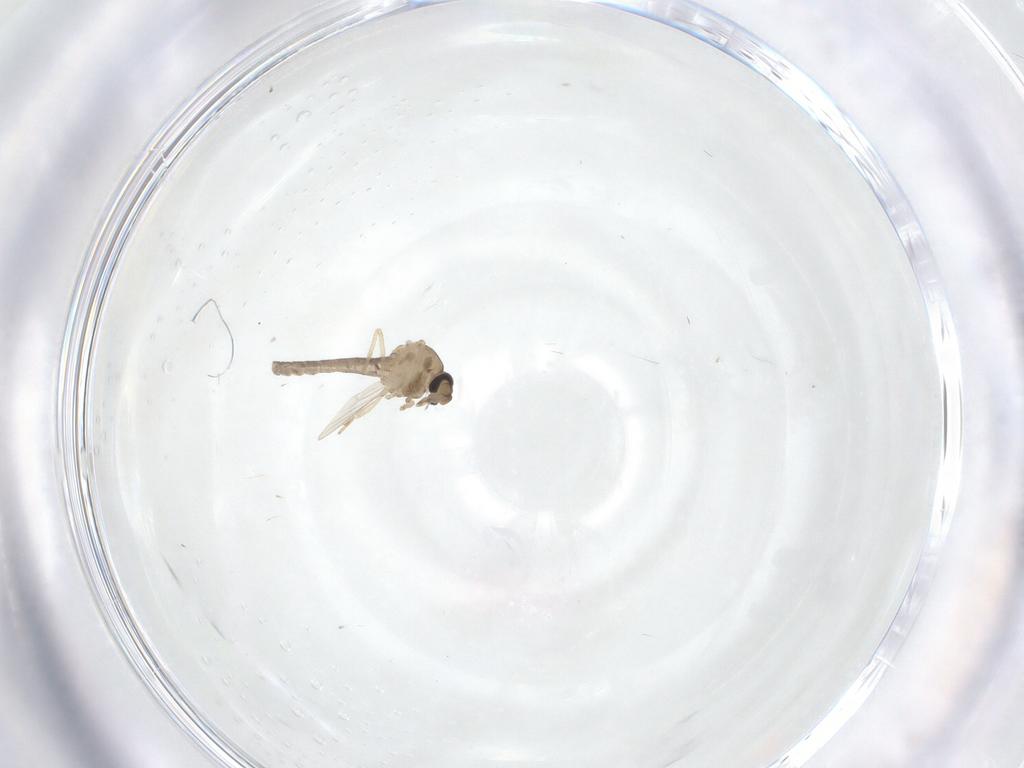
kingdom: Animalia
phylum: Arthropoda
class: Insecta
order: Diptera
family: Ceratopogonidae
